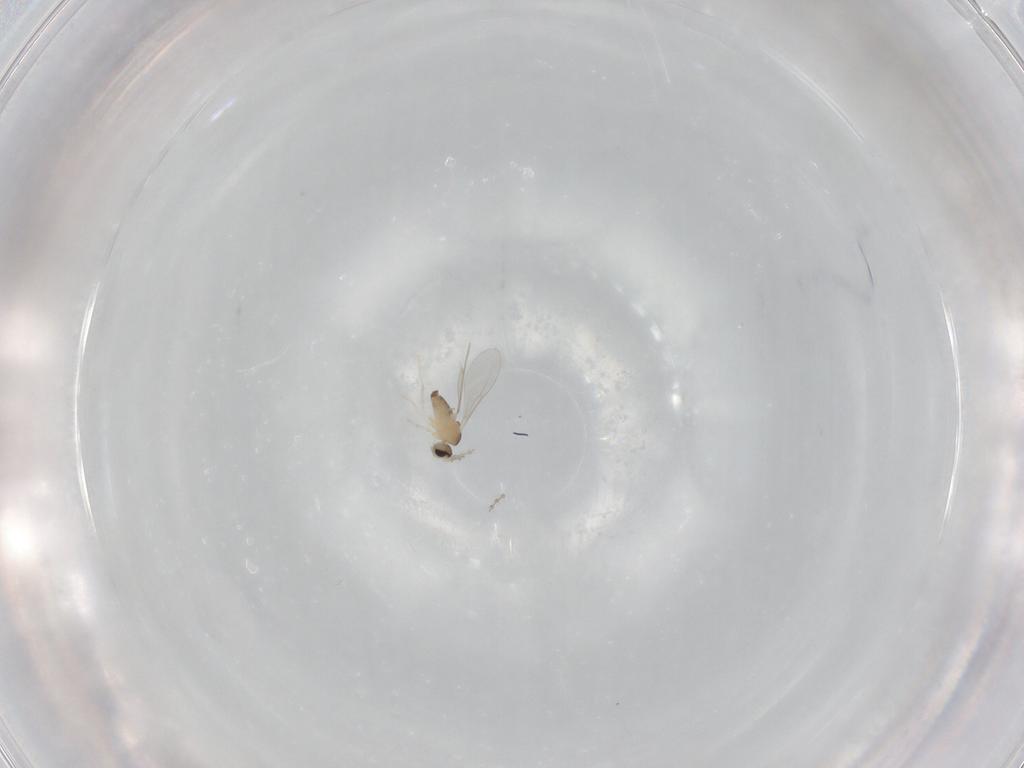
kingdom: Animalia
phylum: Arthropoda
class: Insecta
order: Diptera
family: Cecidomyiidae
